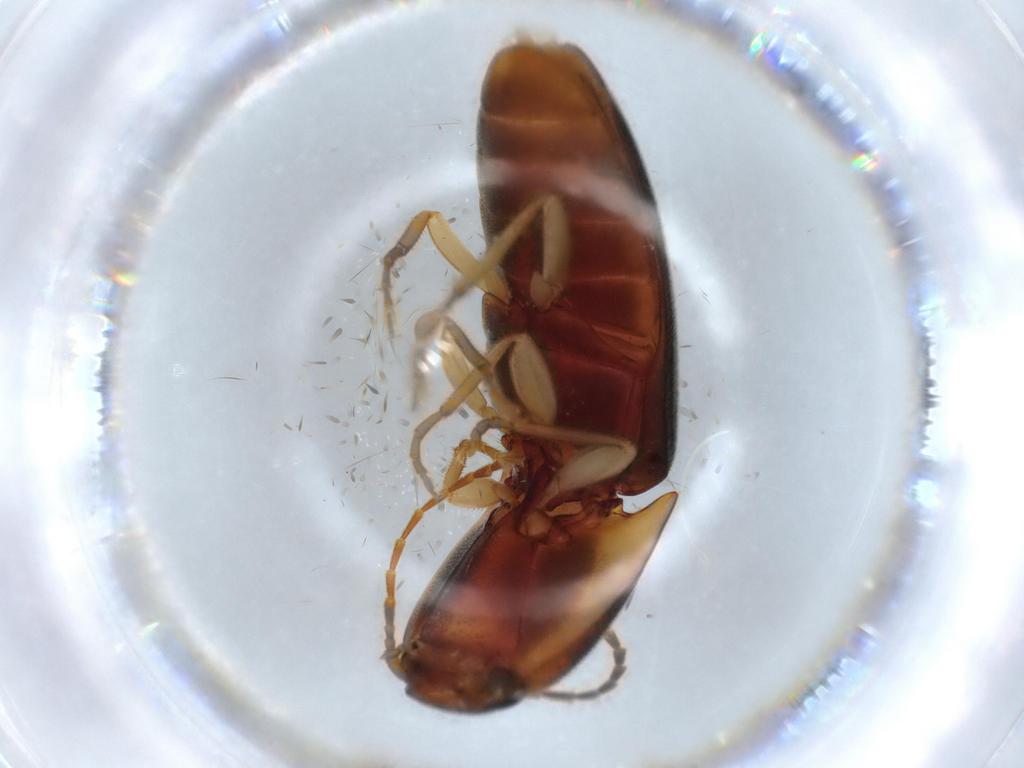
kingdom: Animalia
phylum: Arthropoda
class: Insecta
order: Coleoptera
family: Elateridae
